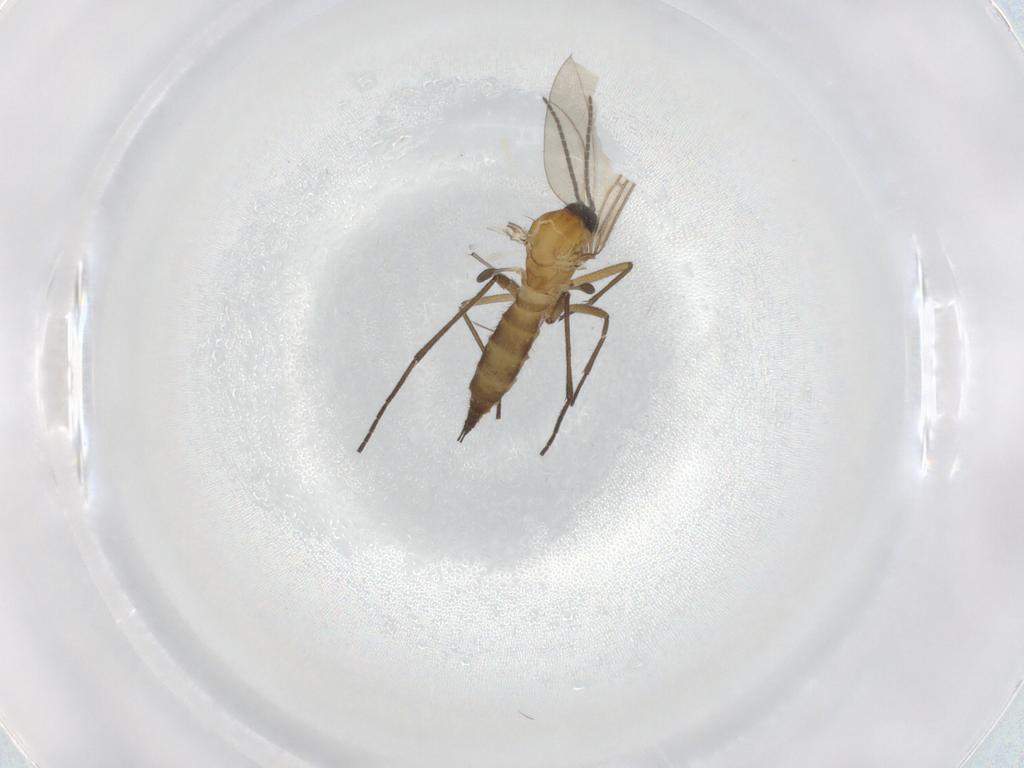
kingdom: Animalia
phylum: Arthropoda
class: Insecta
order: Diptera
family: Sciaridae
